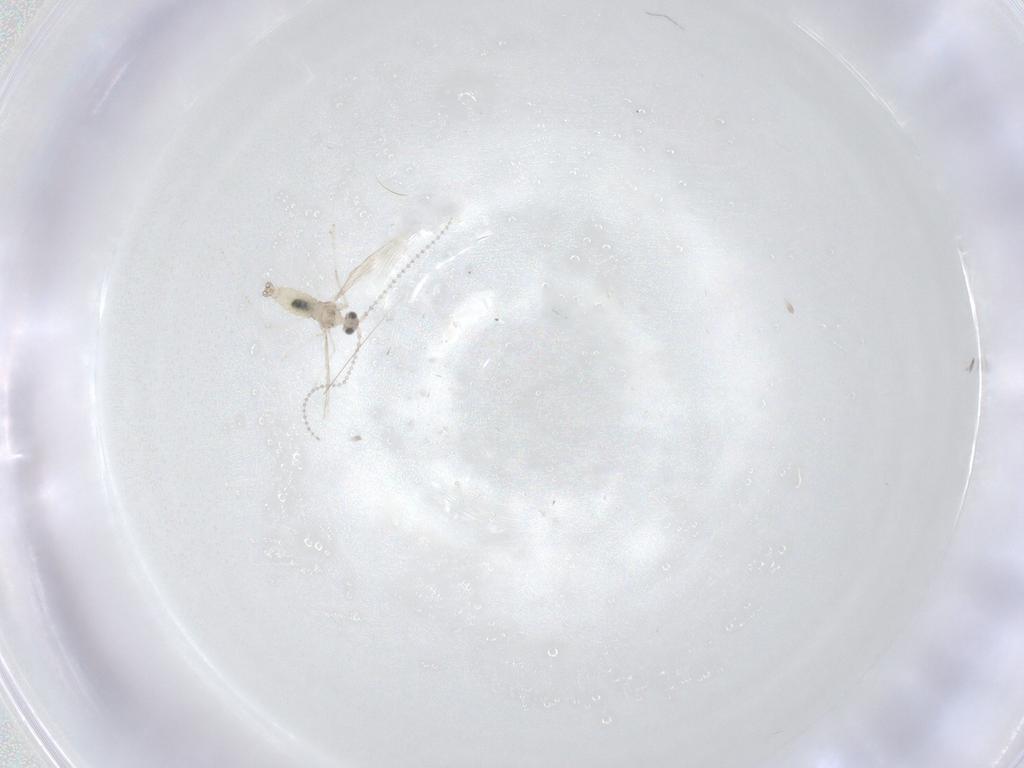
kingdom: Animalia
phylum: Arthropoda
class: Insecta
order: Diptera
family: Cecidomyiidae
